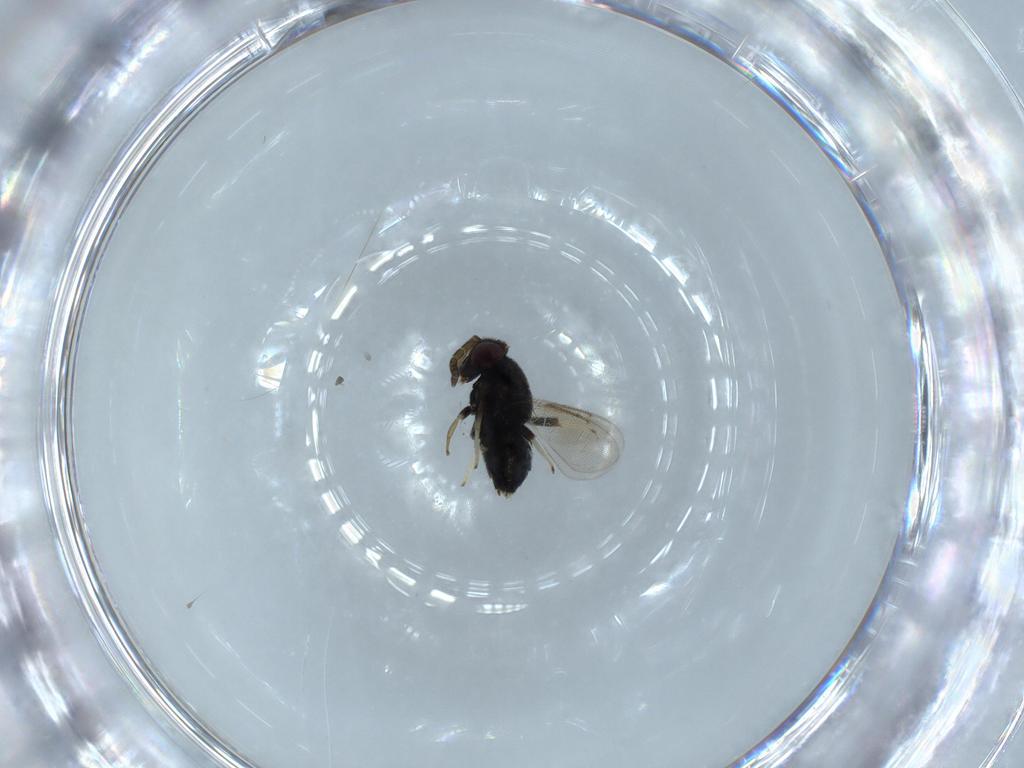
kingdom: Animalia
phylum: Arthropoda
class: Insecta
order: Hymenoptera
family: Aphelinidae
